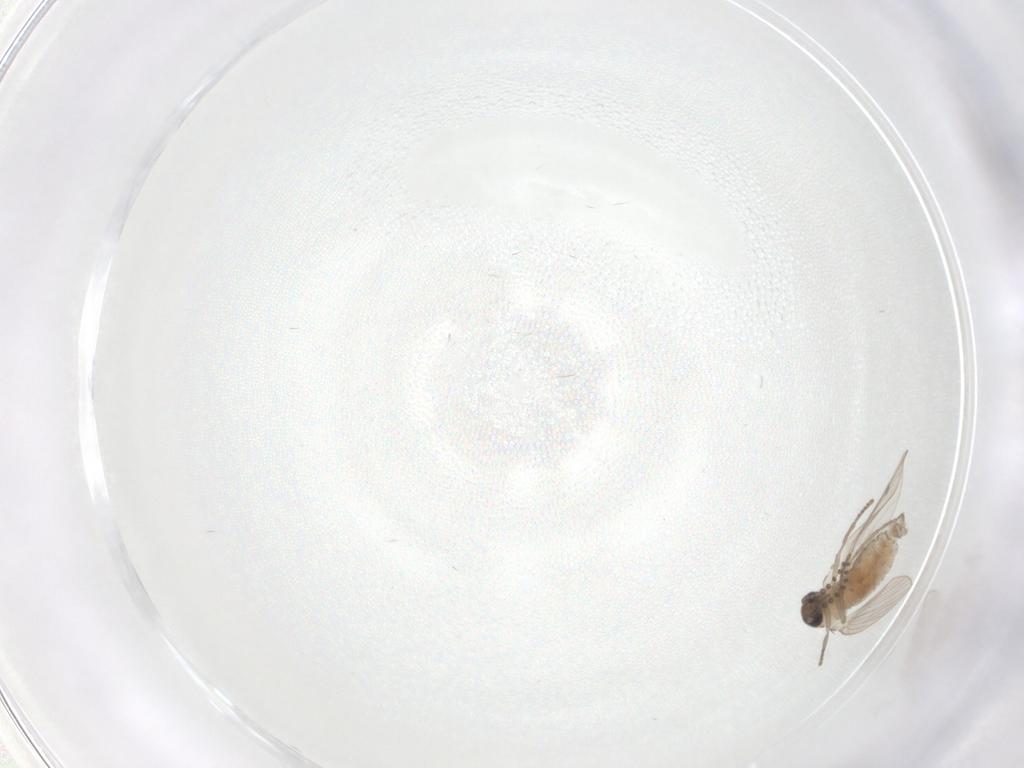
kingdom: Animalia
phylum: Arthropoda
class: Insecta
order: Diptera
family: Psychodidae
